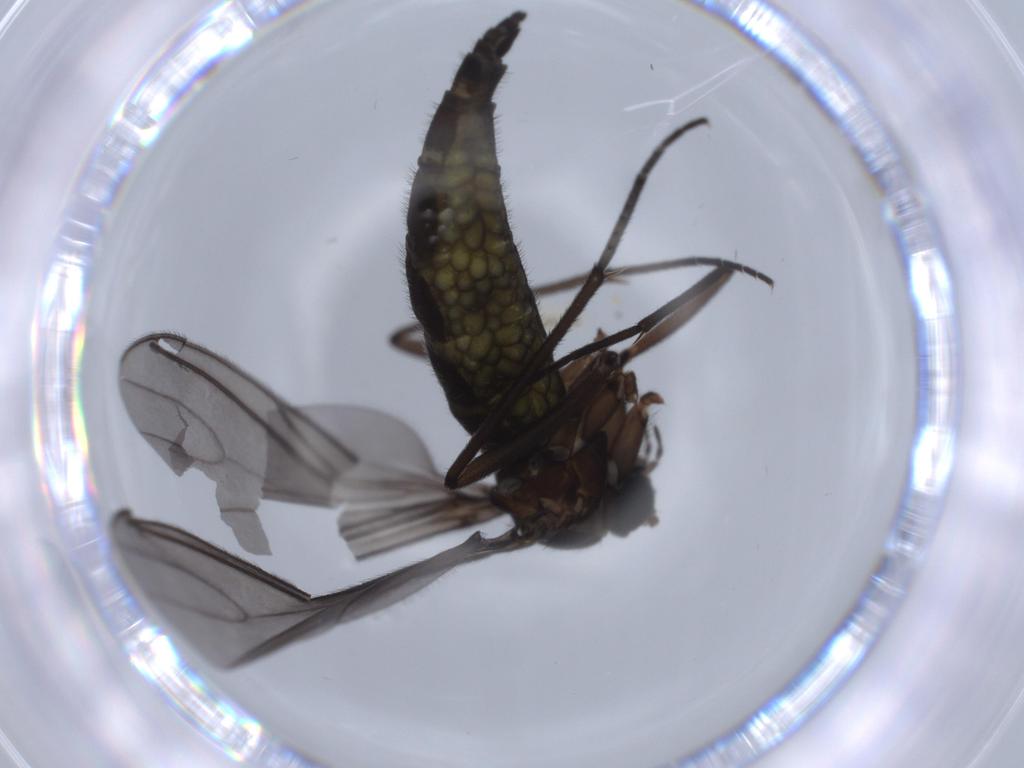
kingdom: Animalia
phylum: Arthropoda
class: Insecta
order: Diptera
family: Sciaridae
